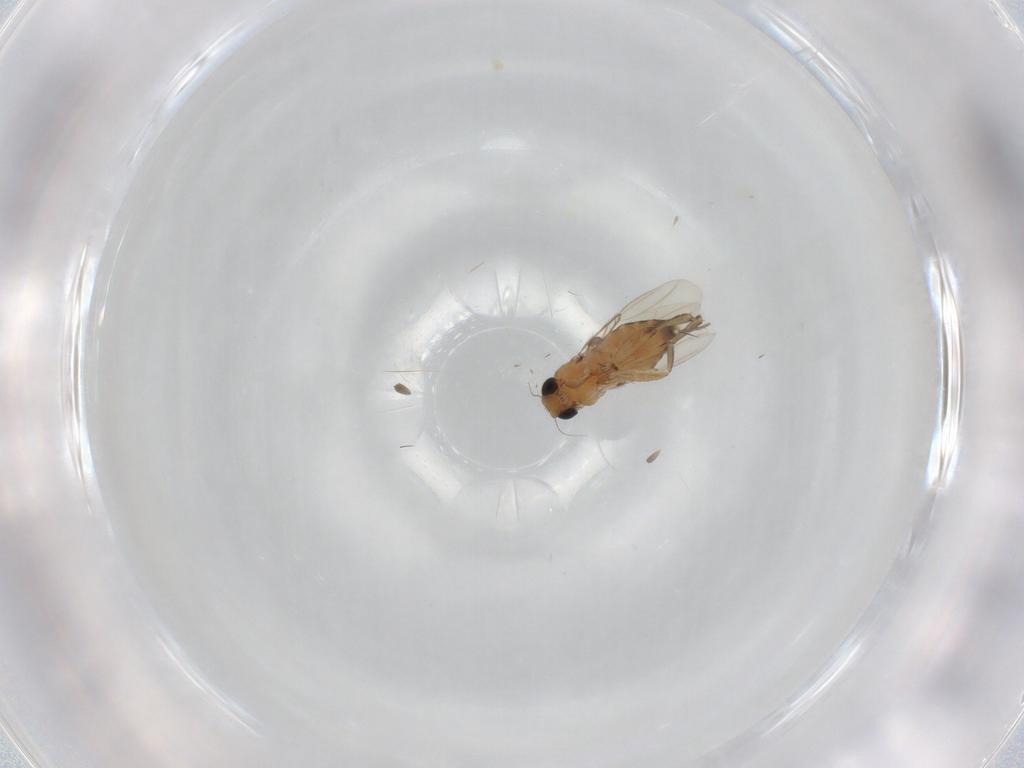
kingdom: Animalia
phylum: Arthropoda
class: Insecta
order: Diptera
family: Phoridae
